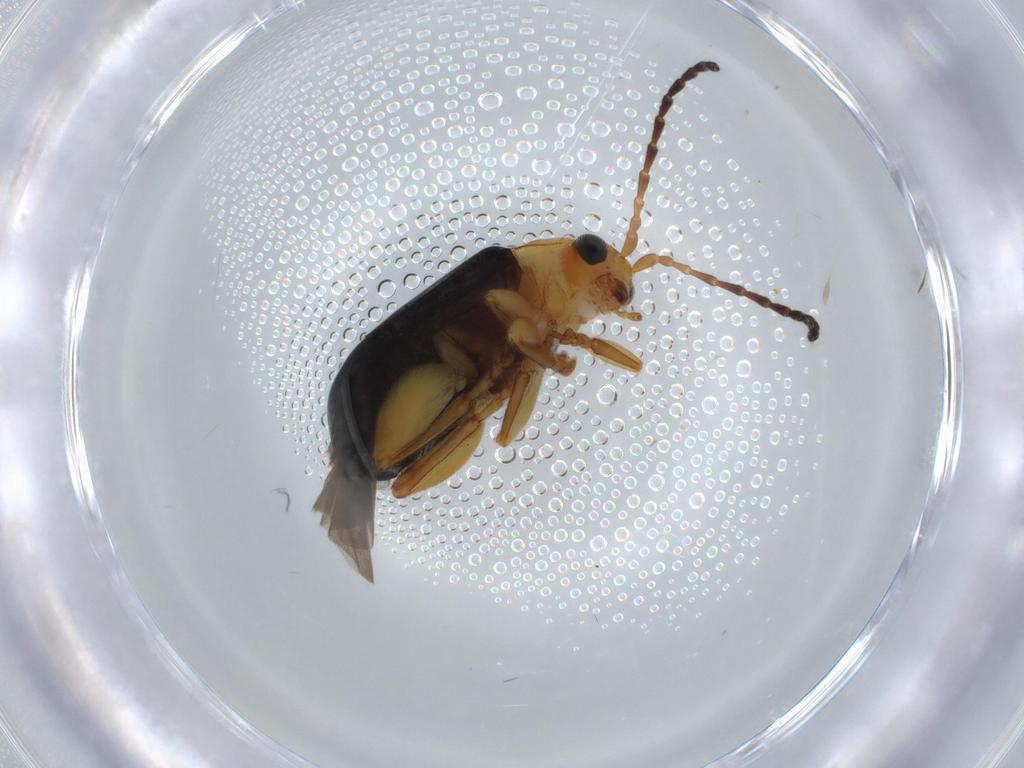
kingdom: Animalia
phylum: Arthropoda
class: Insecta
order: Coleoptera
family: Chrysomelidae
